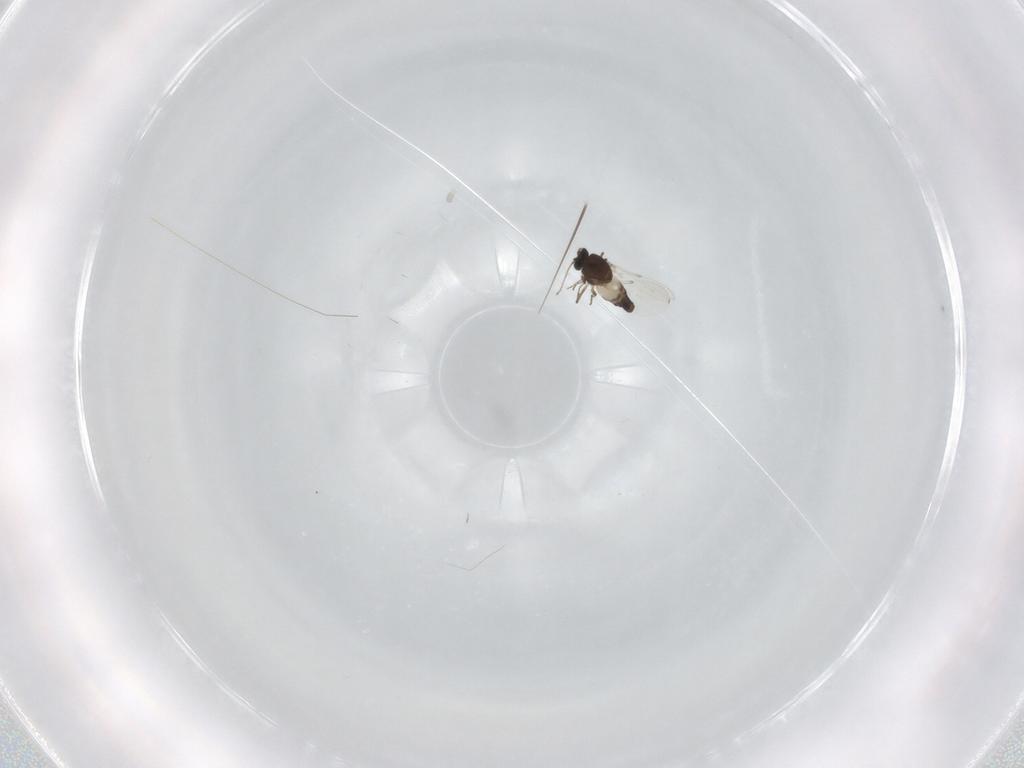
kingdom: Animalia
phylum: Arthropoda
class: Insecta
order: Diptera
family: Ceratopogonidae
